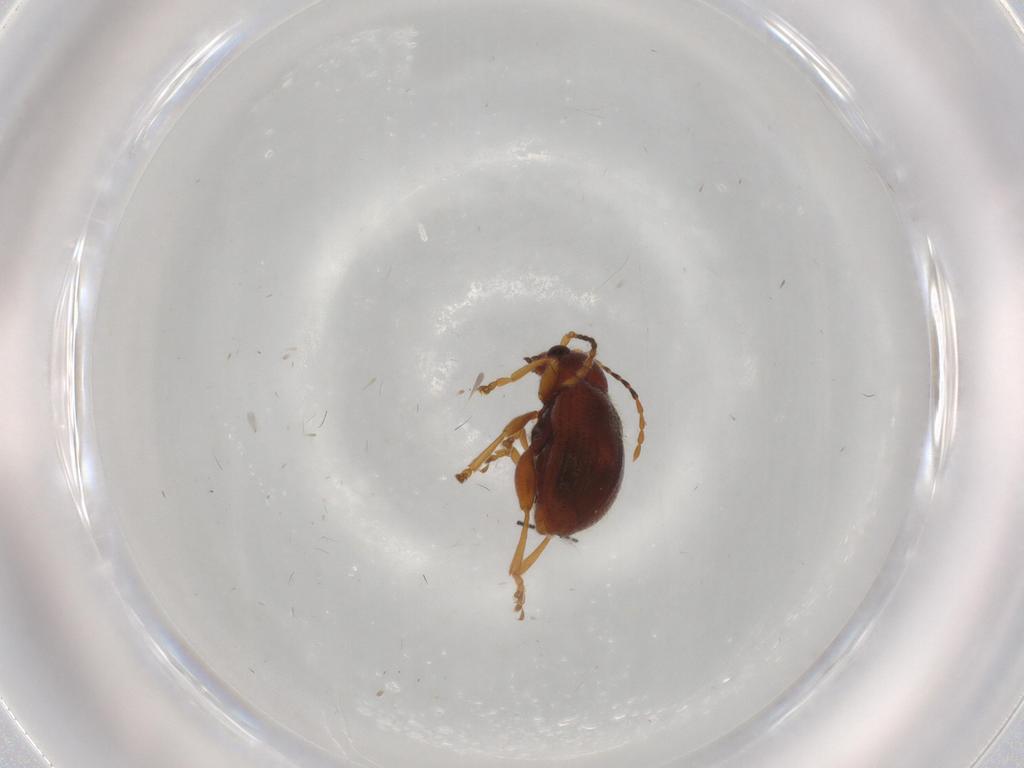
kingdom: Animalia
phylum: Arthropoda
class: Insecta
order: Coleoptera
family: Chrysomelidae
